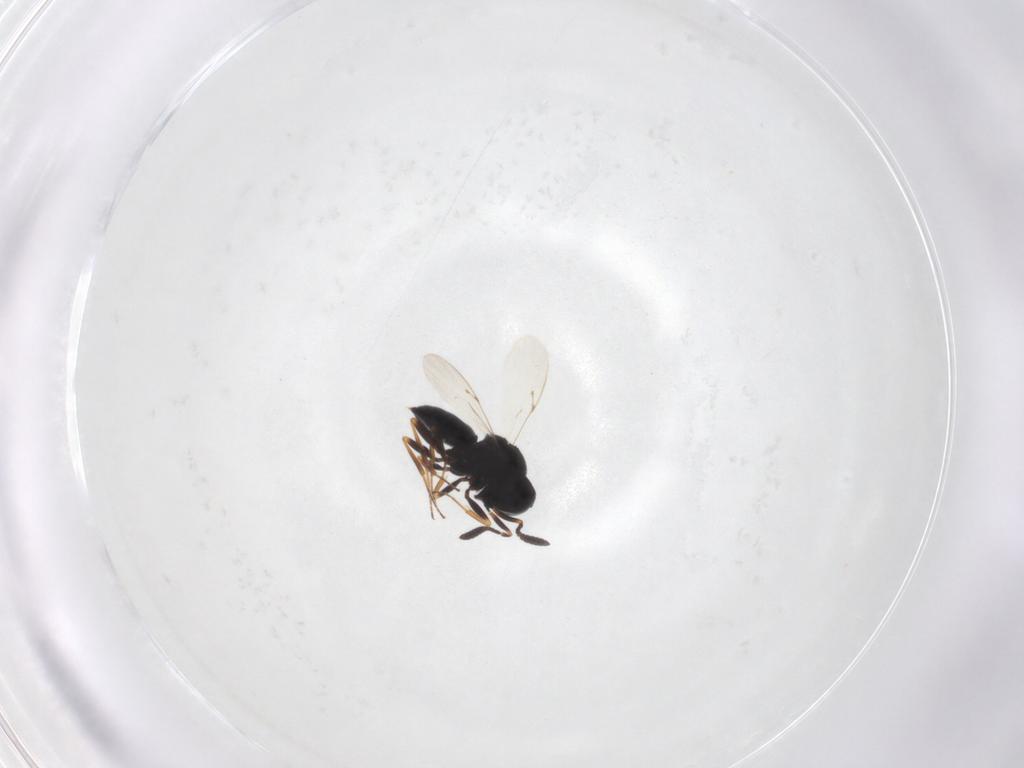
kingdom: Animalia
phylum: Arthropoda
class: Insecta
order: Hymenoptera
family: Scelionidae
